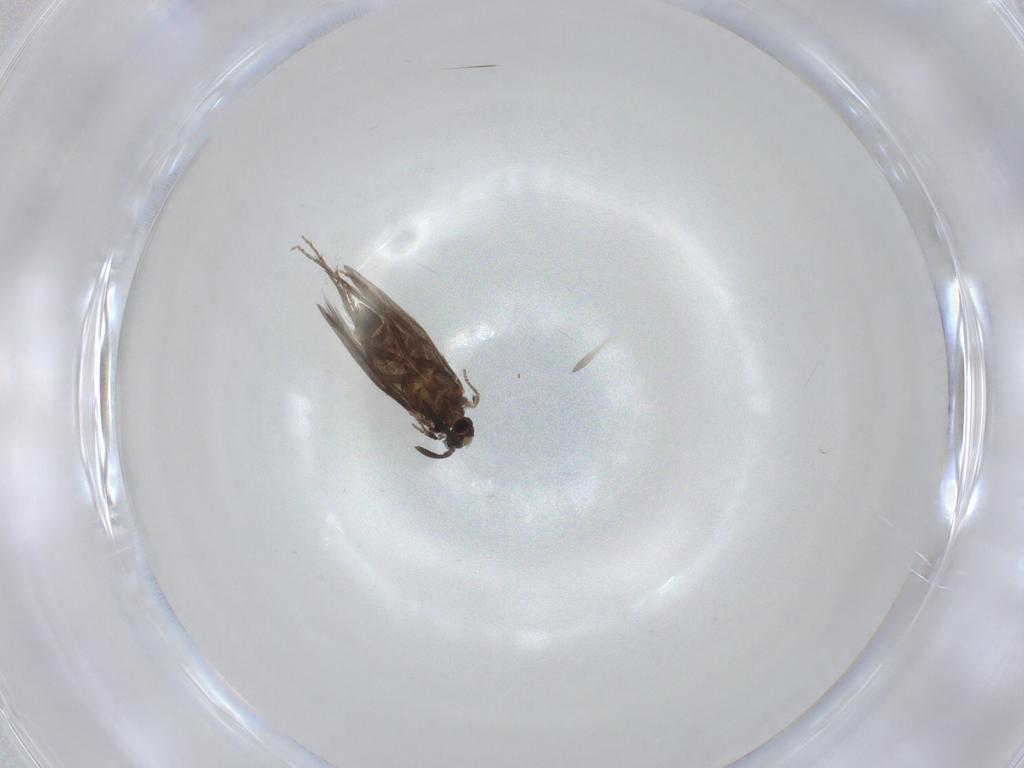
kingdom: Animalia
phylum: Arthropoda
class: Insecta
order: Trichoptera
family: Hydroptilidae
